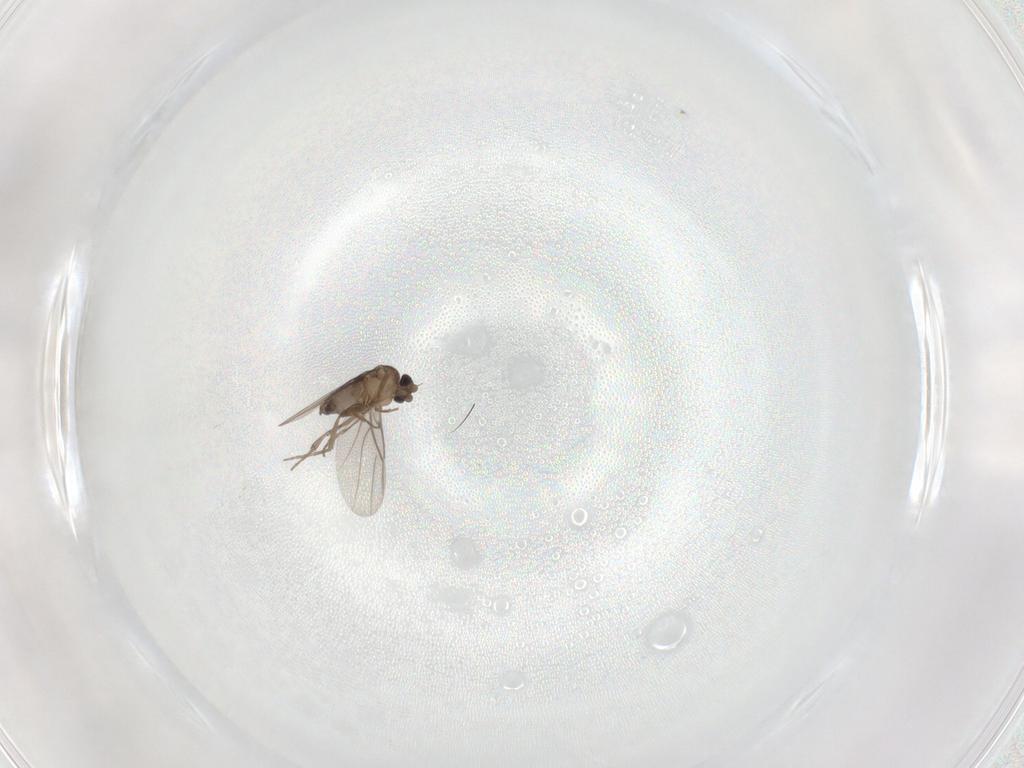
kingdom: Animalia
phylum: Arthropoda
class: Insecta
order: Diptera
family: Phoridae
